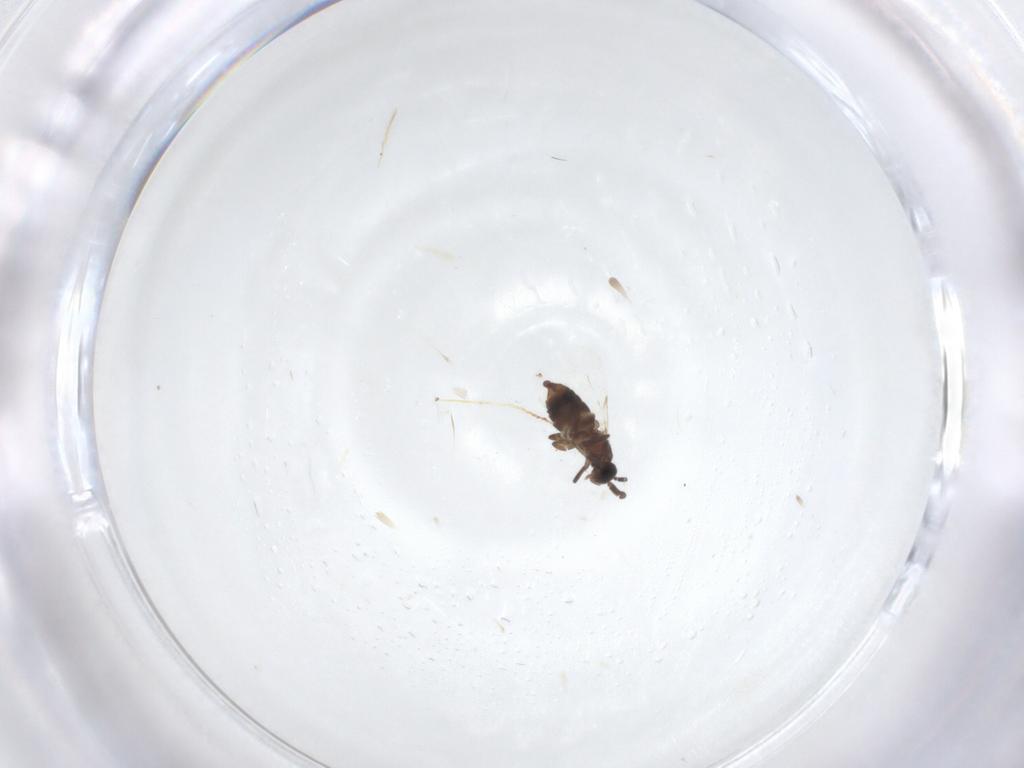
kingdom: Animalia
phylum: Arthropoda
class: Insecta
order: Diptera
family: Scatopsidae
